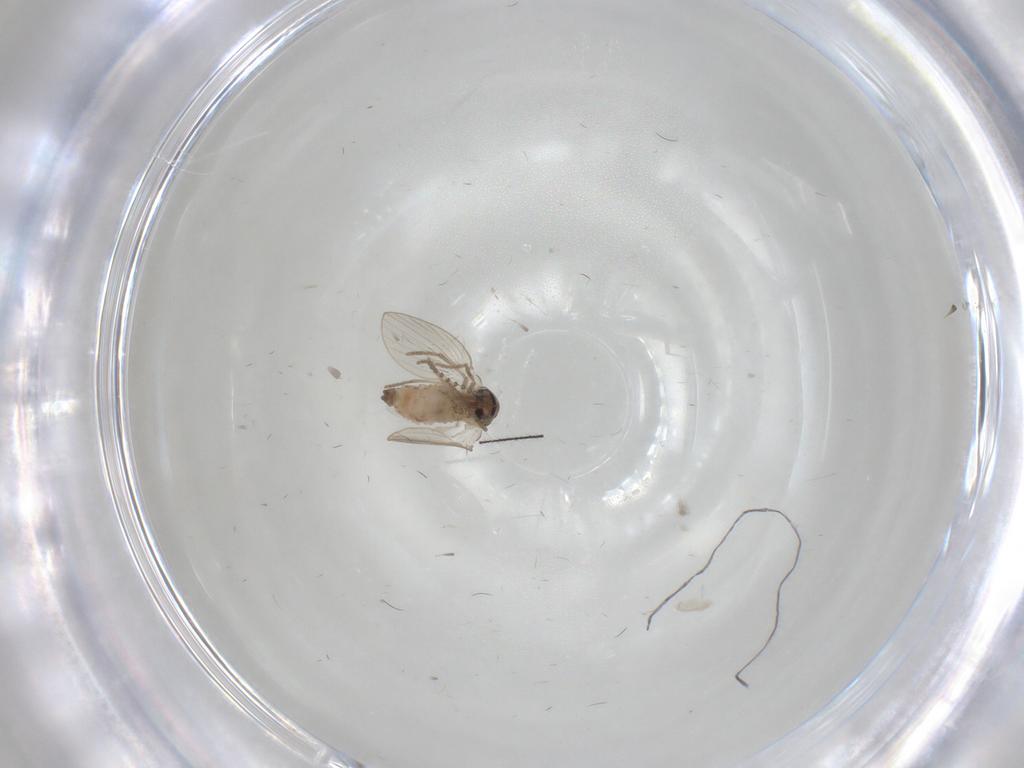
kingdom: Animalia
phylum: Arthropoda
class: Insecta
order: Diptera
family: Psychodidae
